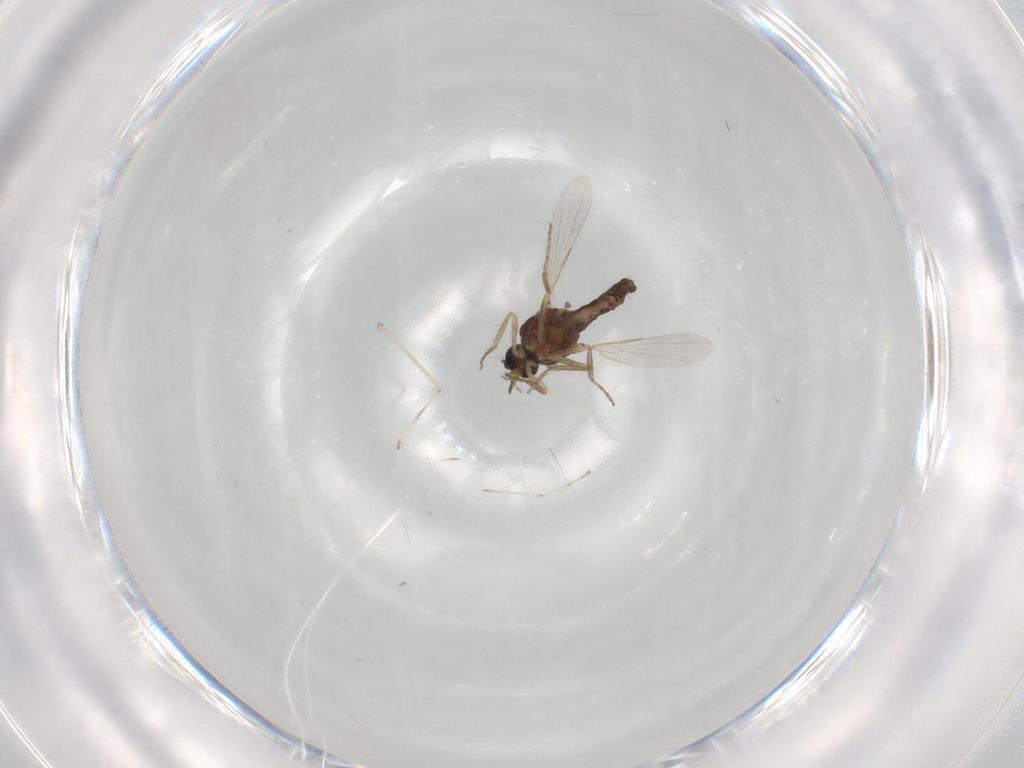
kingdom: Animalia
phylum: Arthropoda
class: Insecta
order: Diptera
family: Ceratopogonidae
